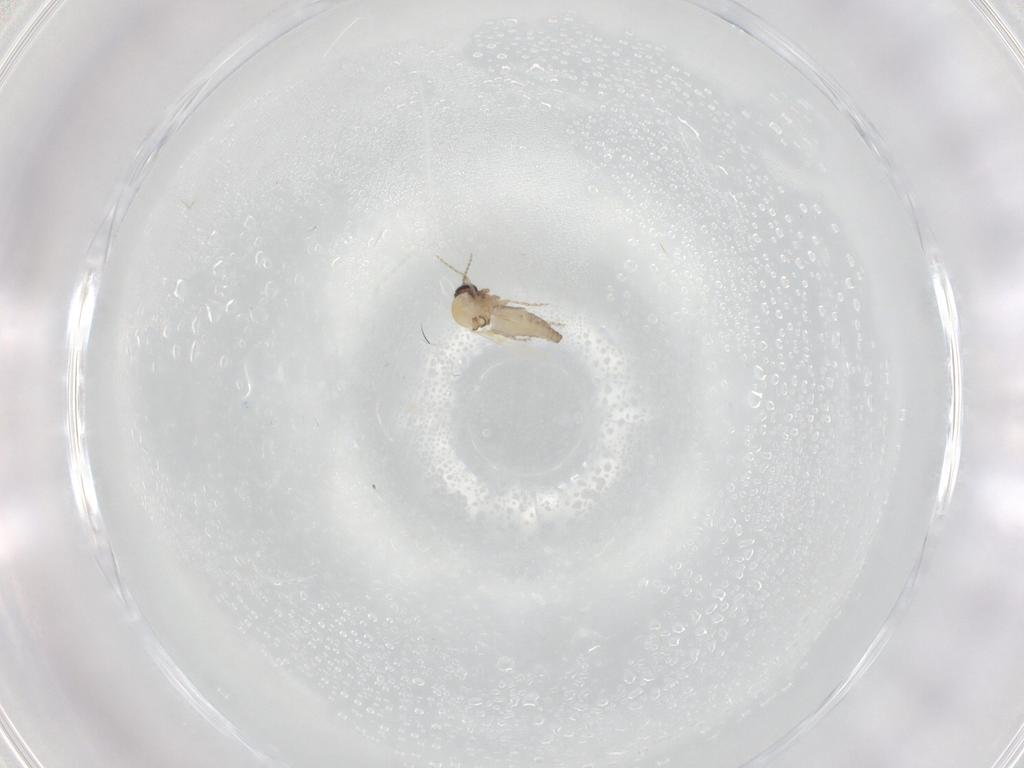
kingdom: Animalia
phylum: Arthropoda
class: Insecta
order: Diptera
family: Ceratopogonidae
